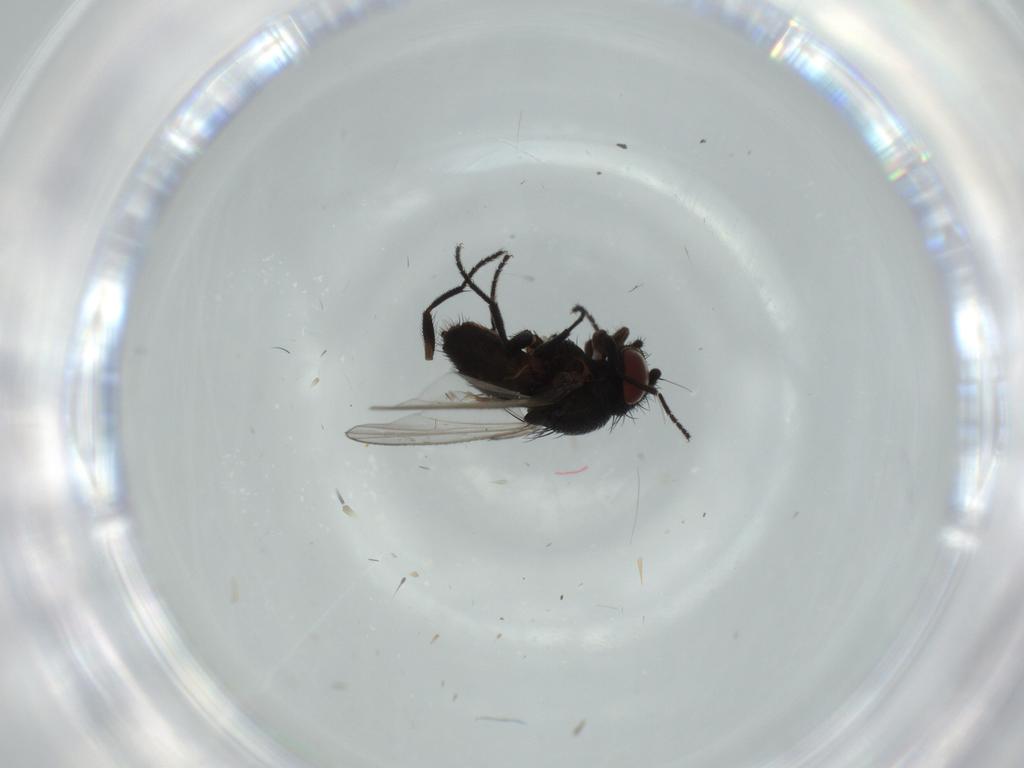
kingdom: Animalia
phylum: Arthropoda
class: Insecta
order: Diptera
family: Milichiidae
